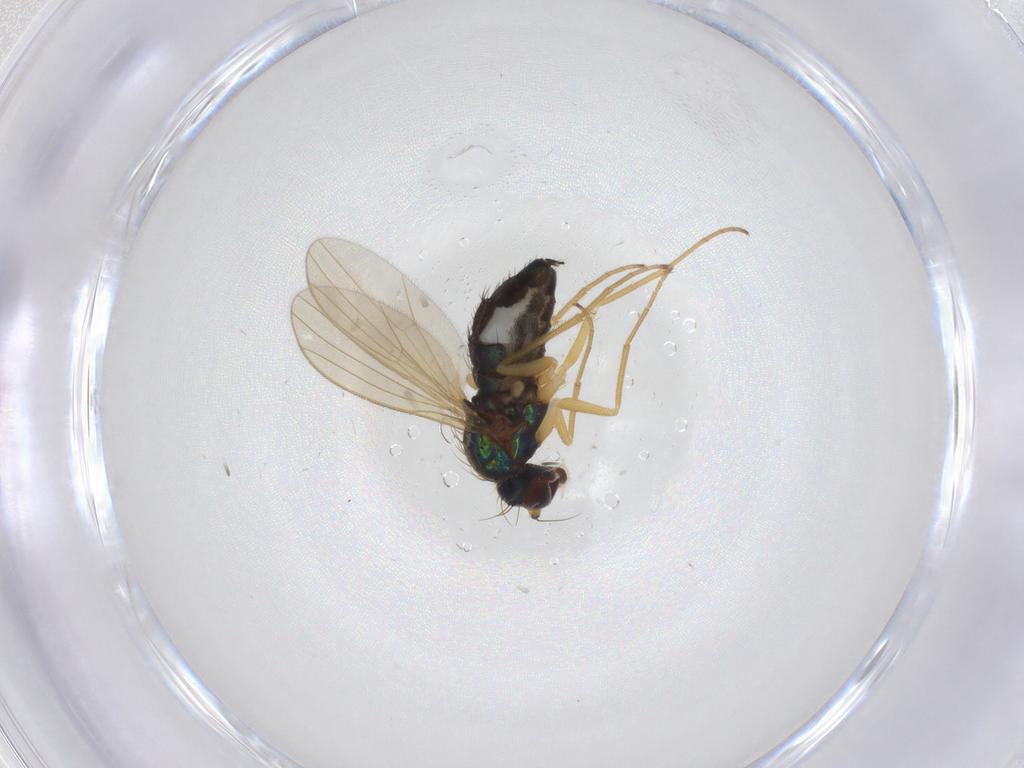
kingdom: Animalia
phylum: Arthropoda
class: Insecta
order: Diptera
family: Dolichopodidae
